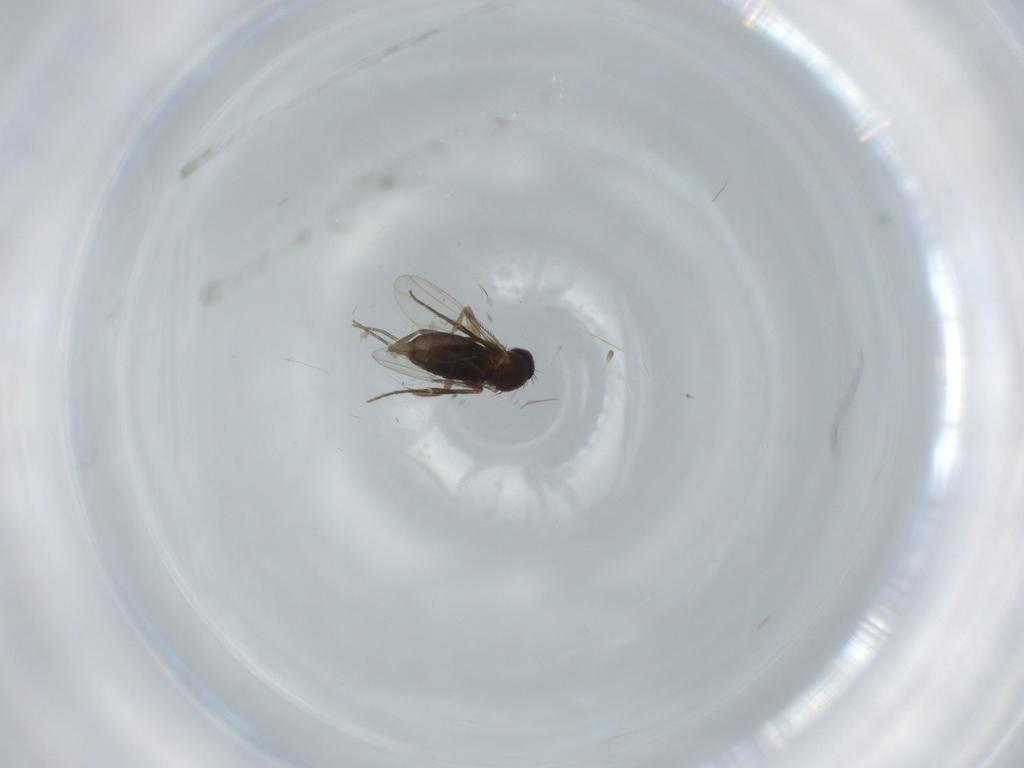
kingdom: Animalia
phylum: Arthropoda
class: Insecta
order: Diptera
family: Phoridae
